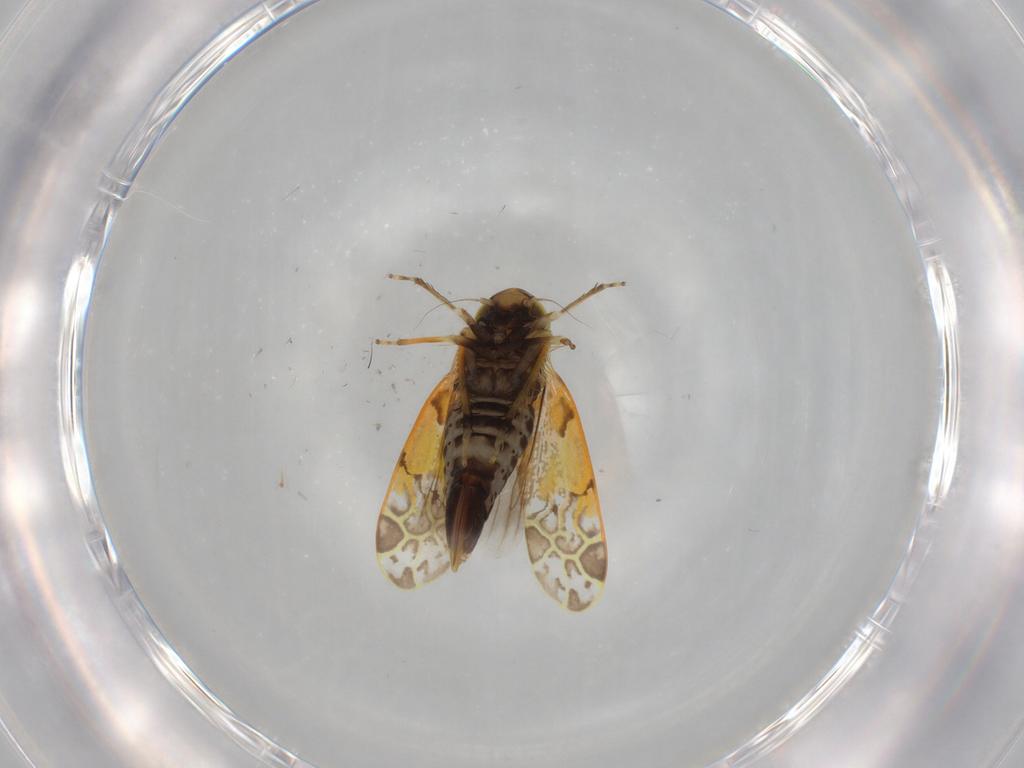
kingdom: Animalia
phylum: Arthropoda
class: Insecta
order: Hemiptera
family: Cicadellidae
